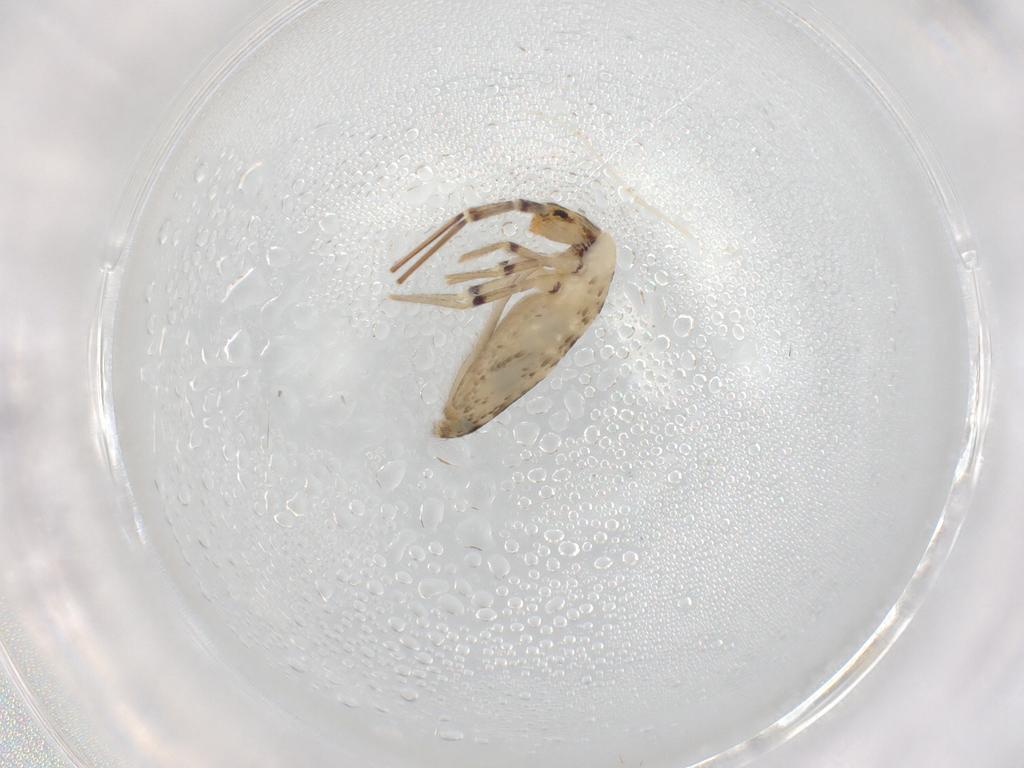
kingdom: Animalia
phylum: Arthropoda
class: Collembola
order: Entomobryomorpha
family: Entomobryidae
